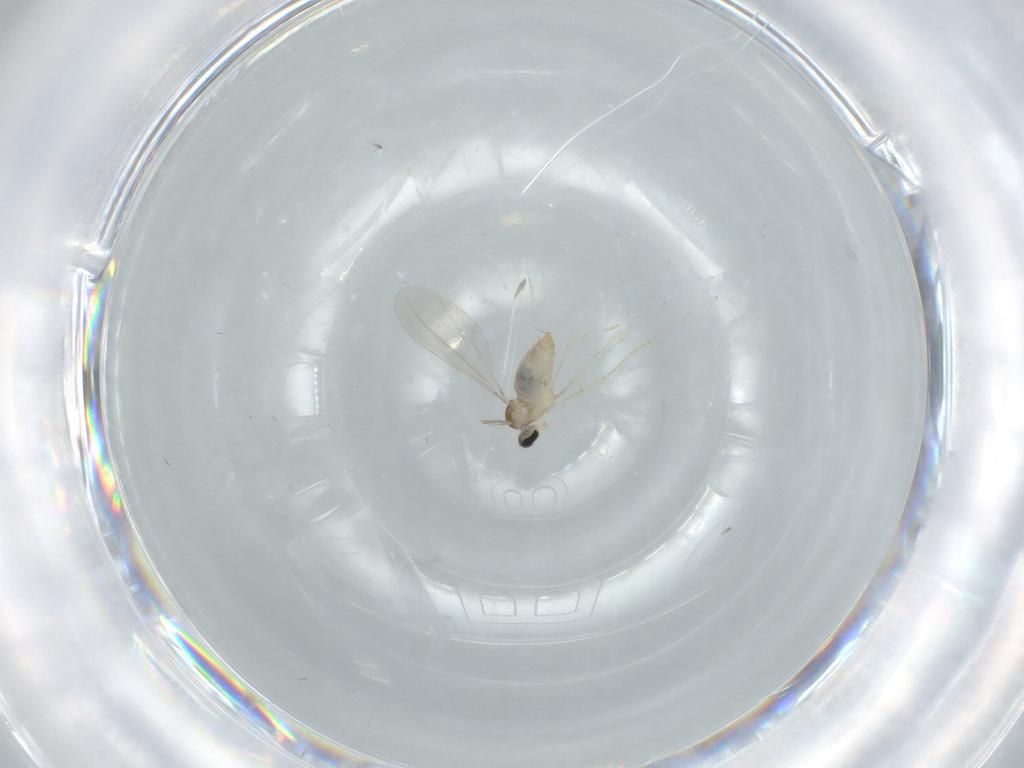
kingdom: Animalia
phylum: Arthropoda
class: Insecta
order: Diptera
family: Cecidomyiidae
